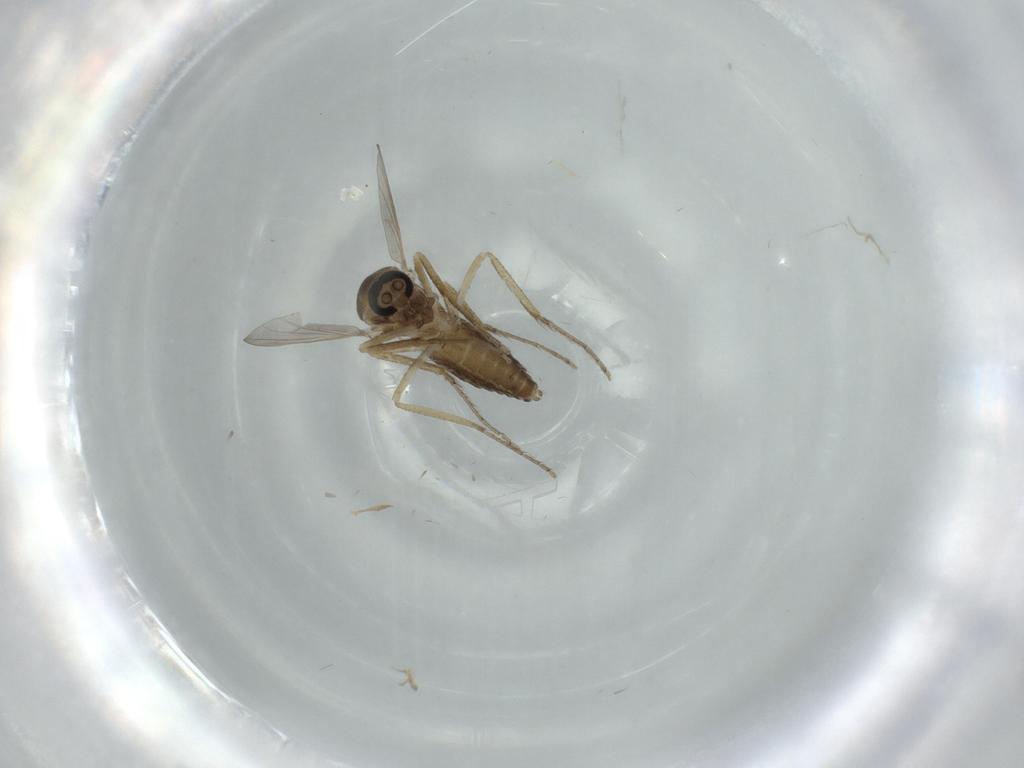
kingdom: Animalia
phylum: Arthropoda
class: Insecta
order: Diptera
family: Ceratopogonidae
